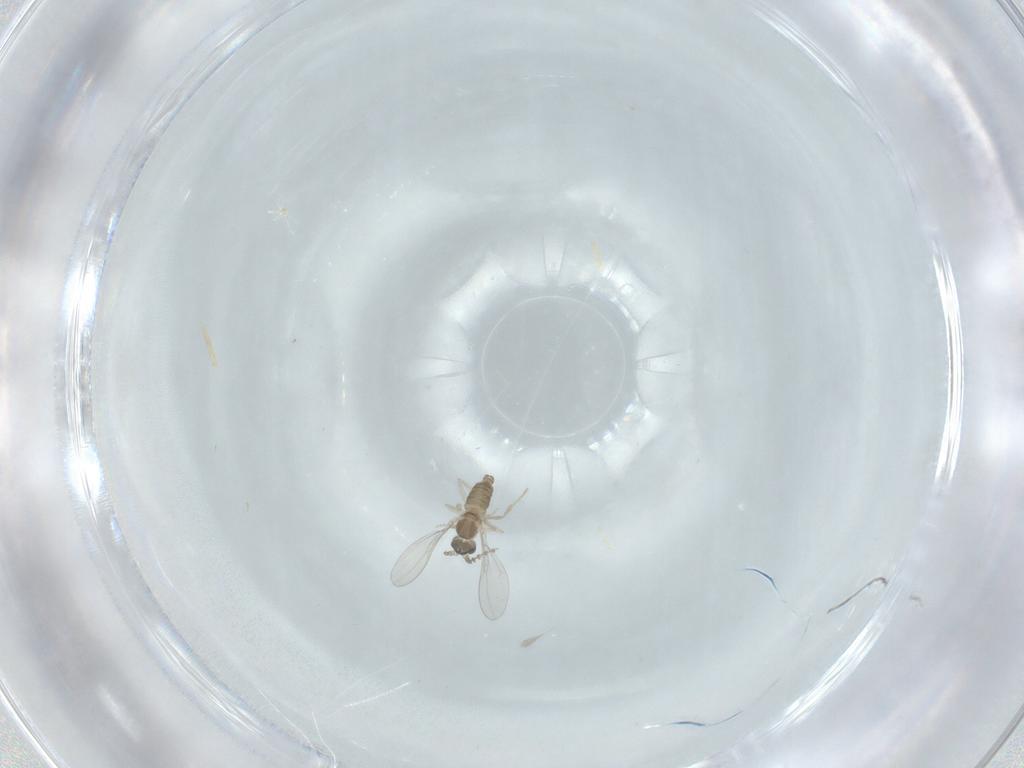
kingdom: Animalia
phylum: Arthropoda
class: Insecta
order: Diptera
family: Cecidomyiidae
